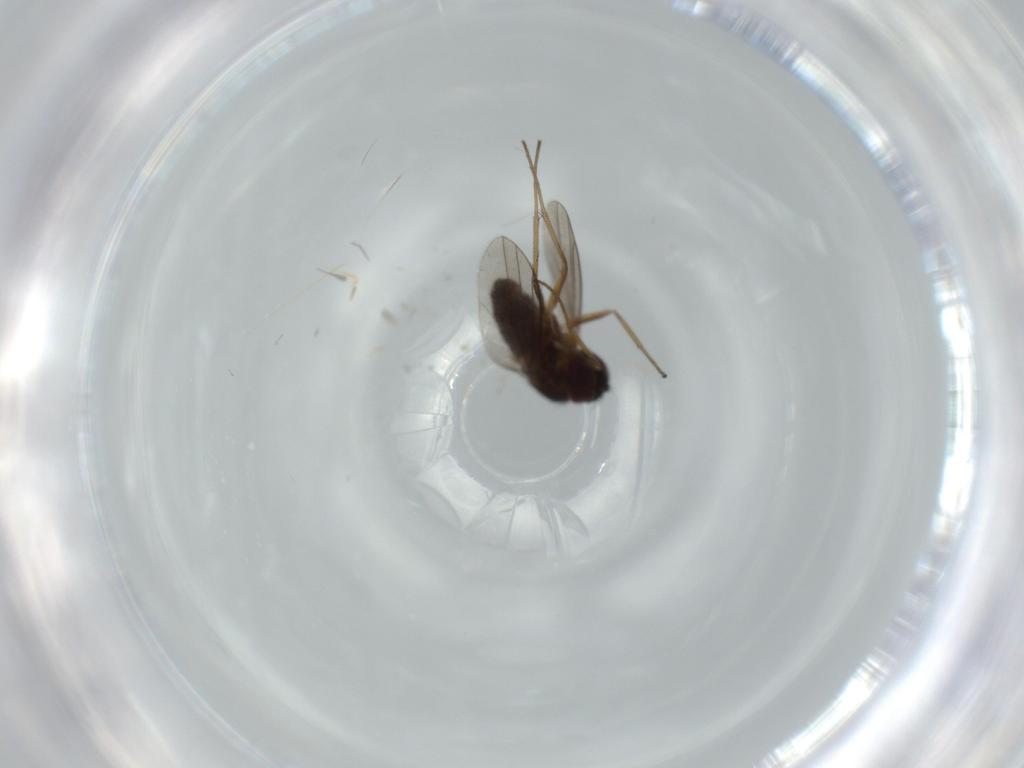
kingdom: Animalia
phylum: Arthropoda
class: Insecta
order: Diptera
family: Dolichopodidae
